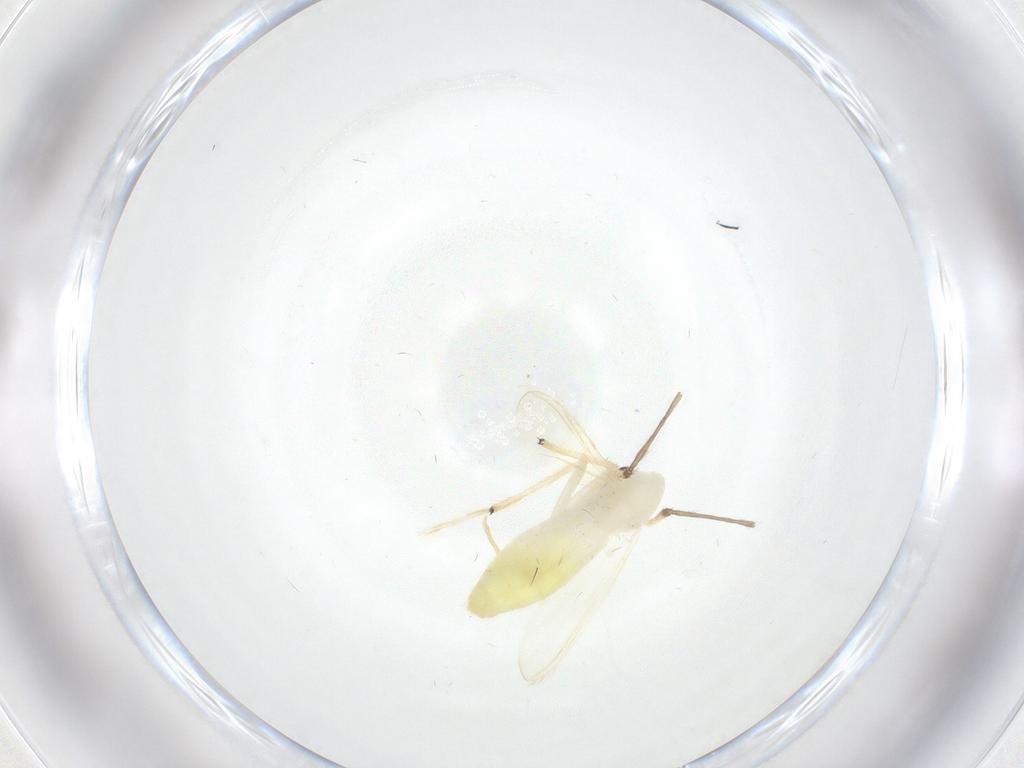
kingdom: Animalia
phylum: Arthropoda
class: Insecta
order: Diptera
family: Chironomidae
